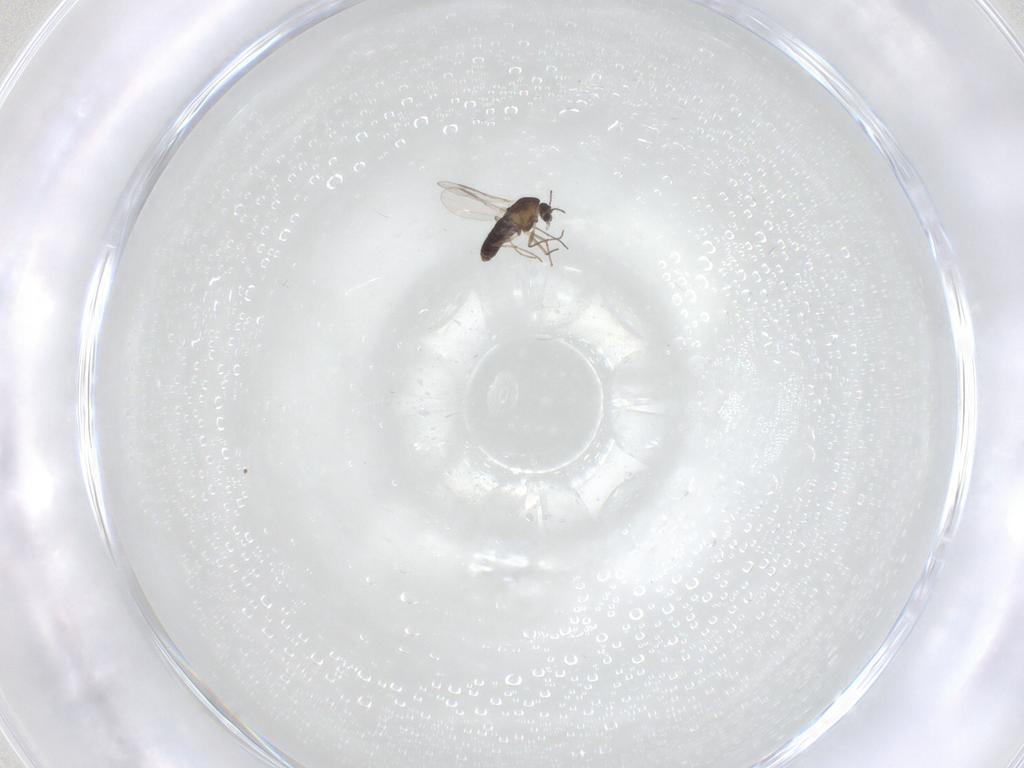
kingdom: Animalia
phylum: Arthropoda
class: Insecta
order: Diptera
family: Chironomidae
